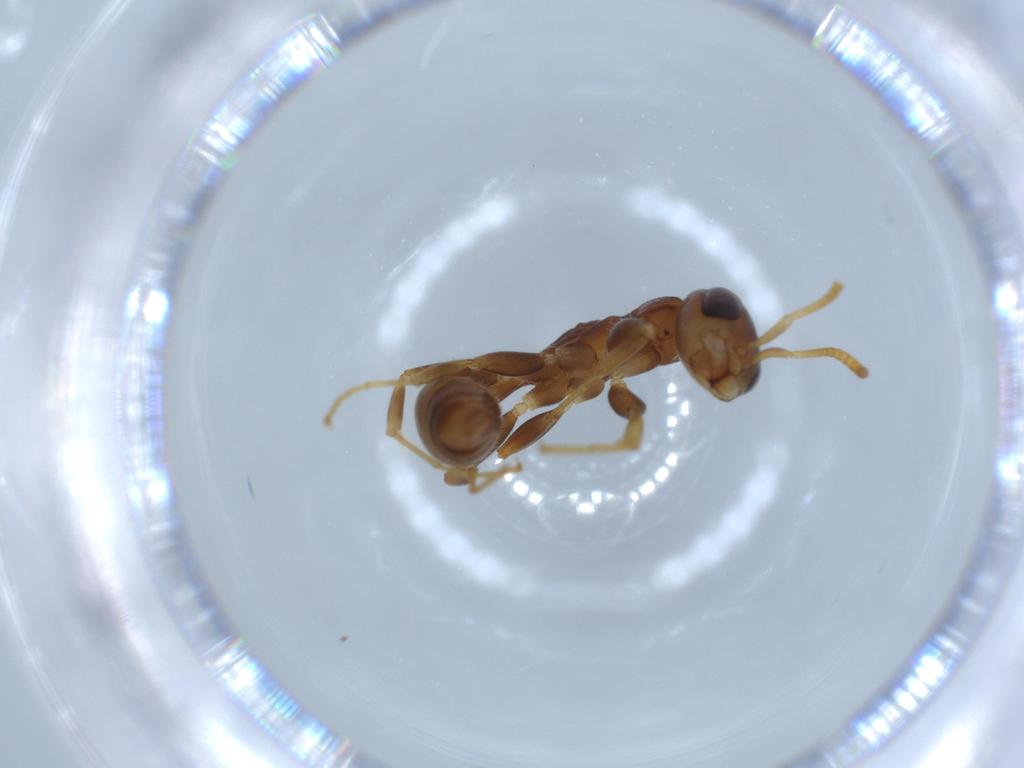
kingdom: Animalia
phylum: Arthropoda
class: Insecta
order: Hymenoptera
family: Formicidae
